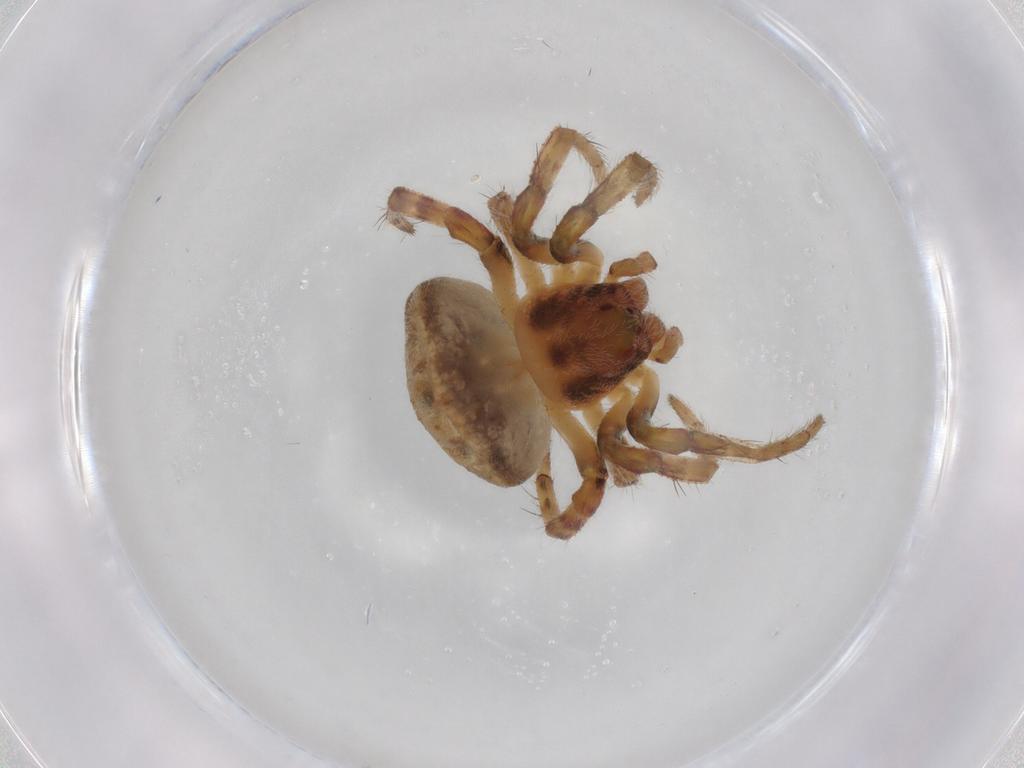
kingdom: Animalia
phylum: Arthropoda
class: Arachnida
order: Araneae
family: Araneidae
